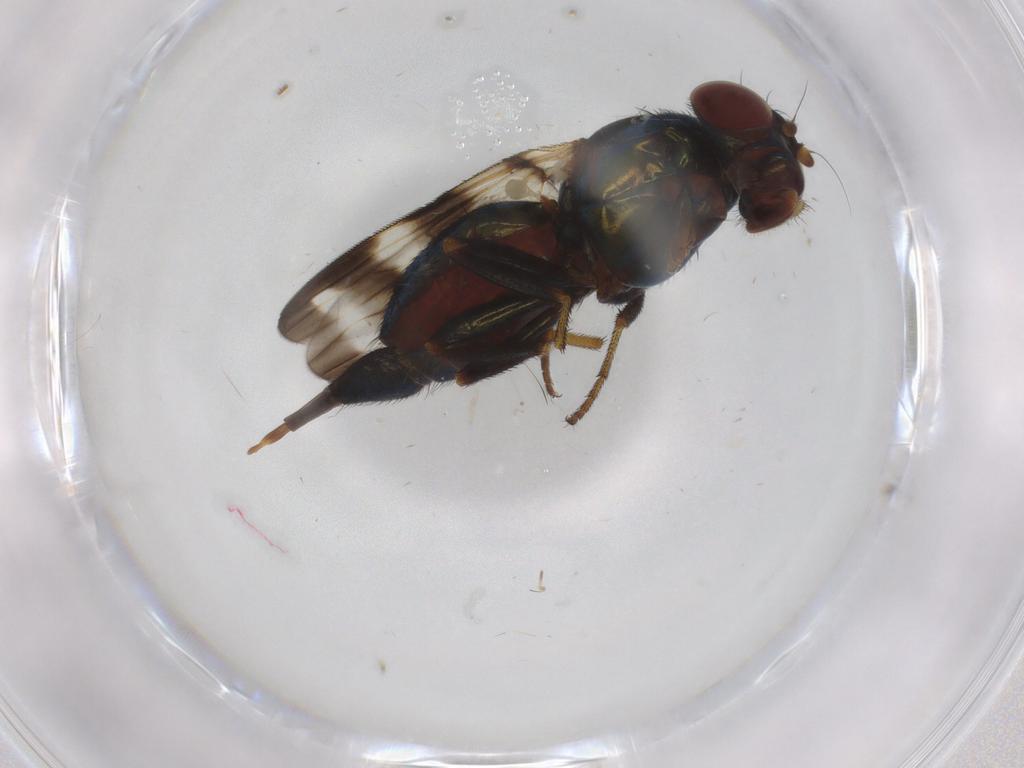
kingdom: Animalia
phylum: Arthropoda
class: Insecta
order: Diptera
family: Ulidiidae
